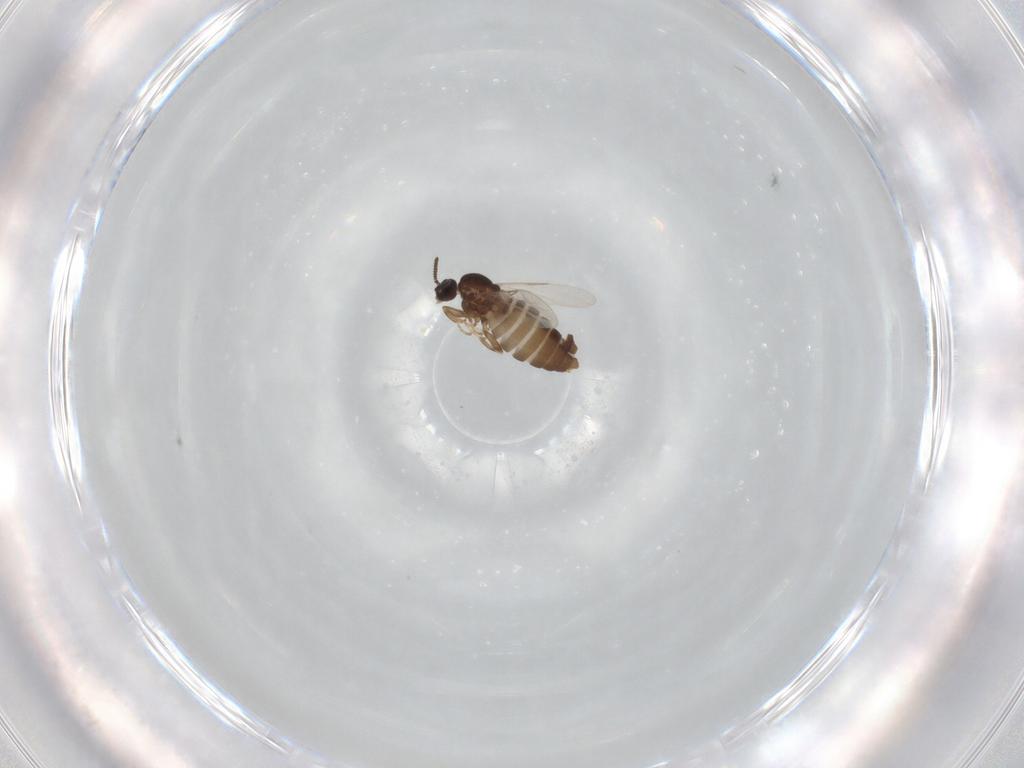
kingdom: Animalia
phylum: Arthropoda
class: Insecta
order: Diptera
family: Scatopsidae
